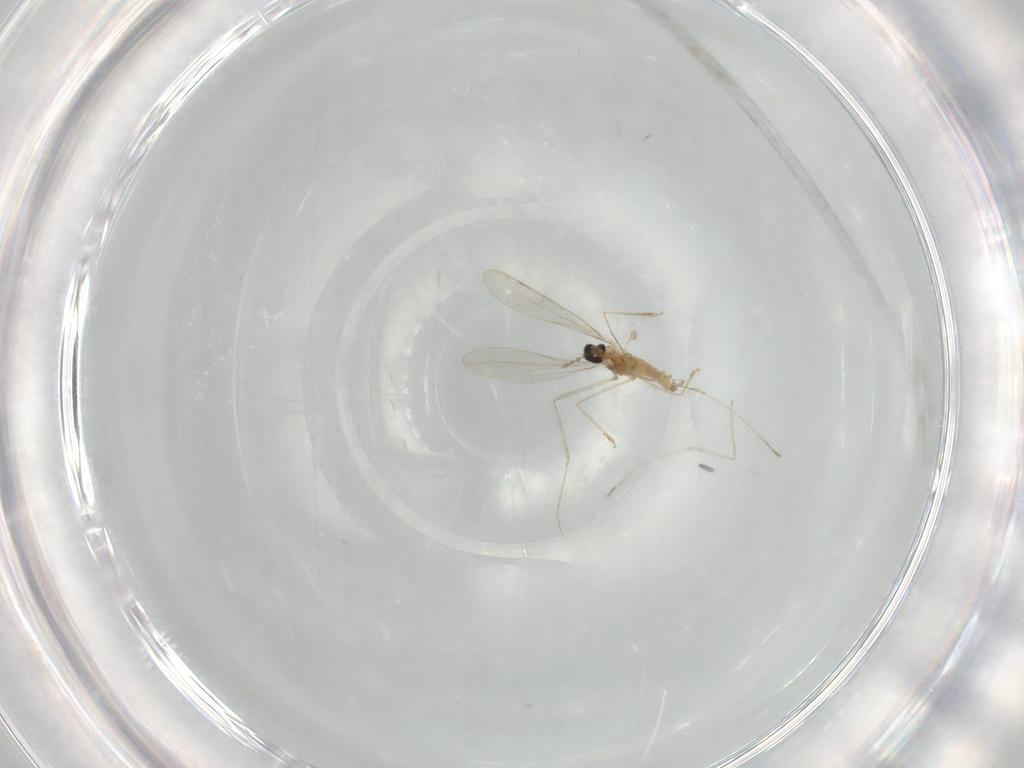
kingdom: Animalia
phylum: Arthropoda
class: Insecta
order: Diptera
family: Cecidomyiidae
